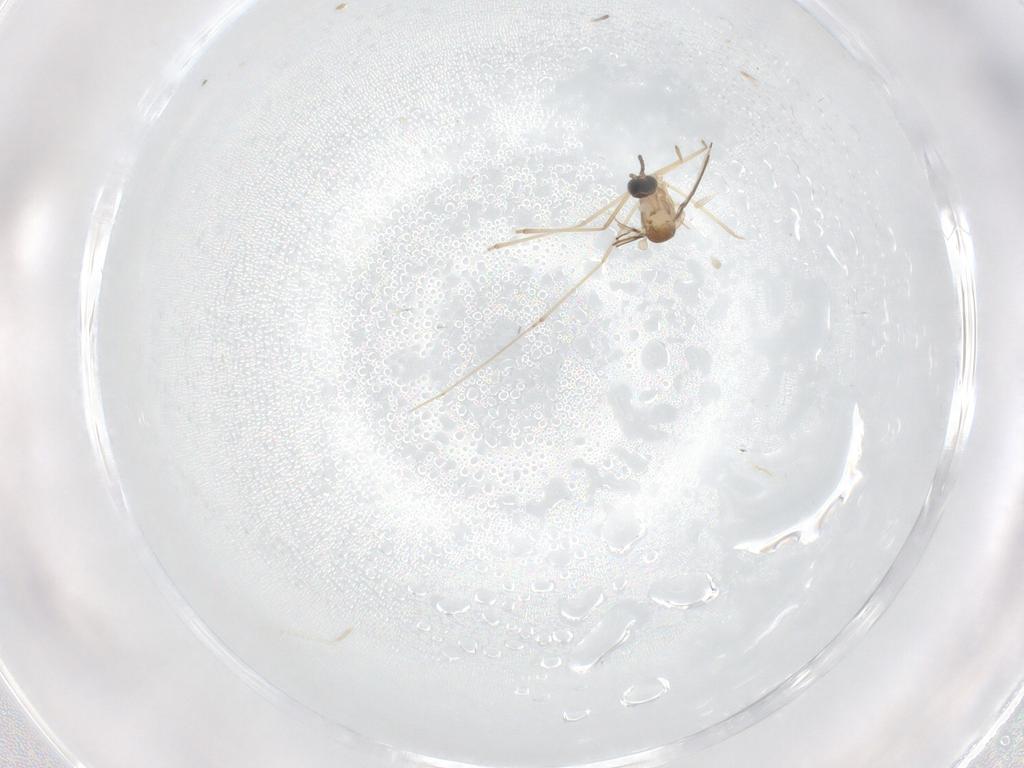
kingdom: Animalia
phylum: Arthropoda
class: Insecta
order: Diptera
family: Cecidomyiidae
